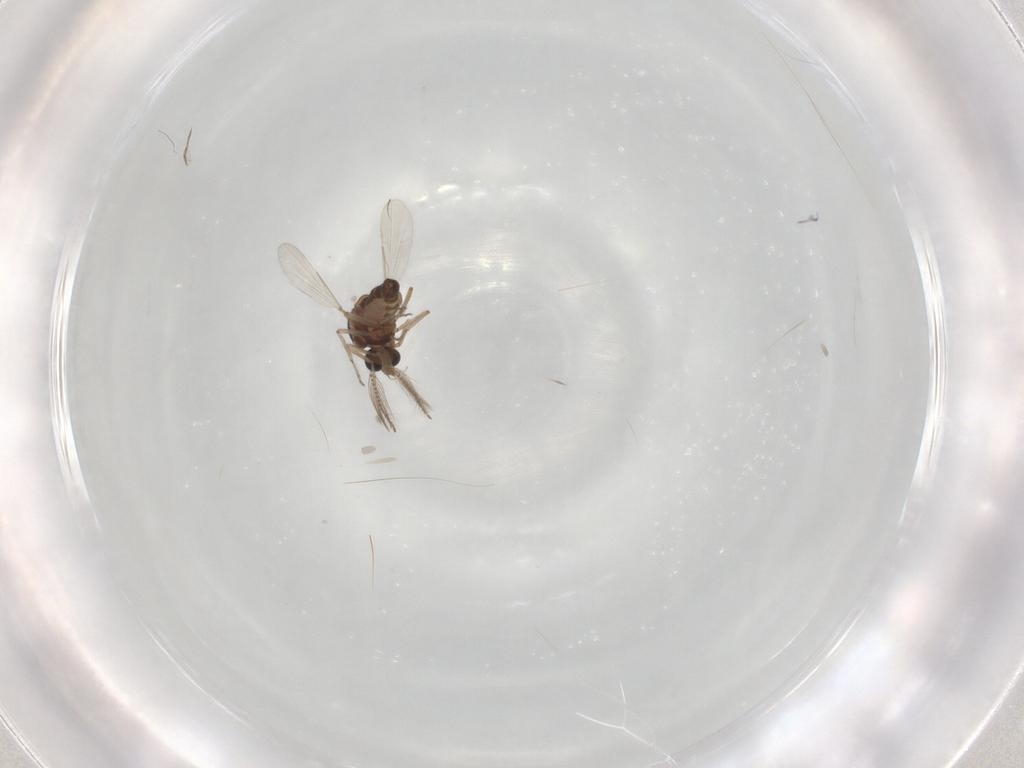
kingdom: Animalia
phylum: Arthropoda
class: Insecta
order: Diptera
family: Ceratopogonidae
